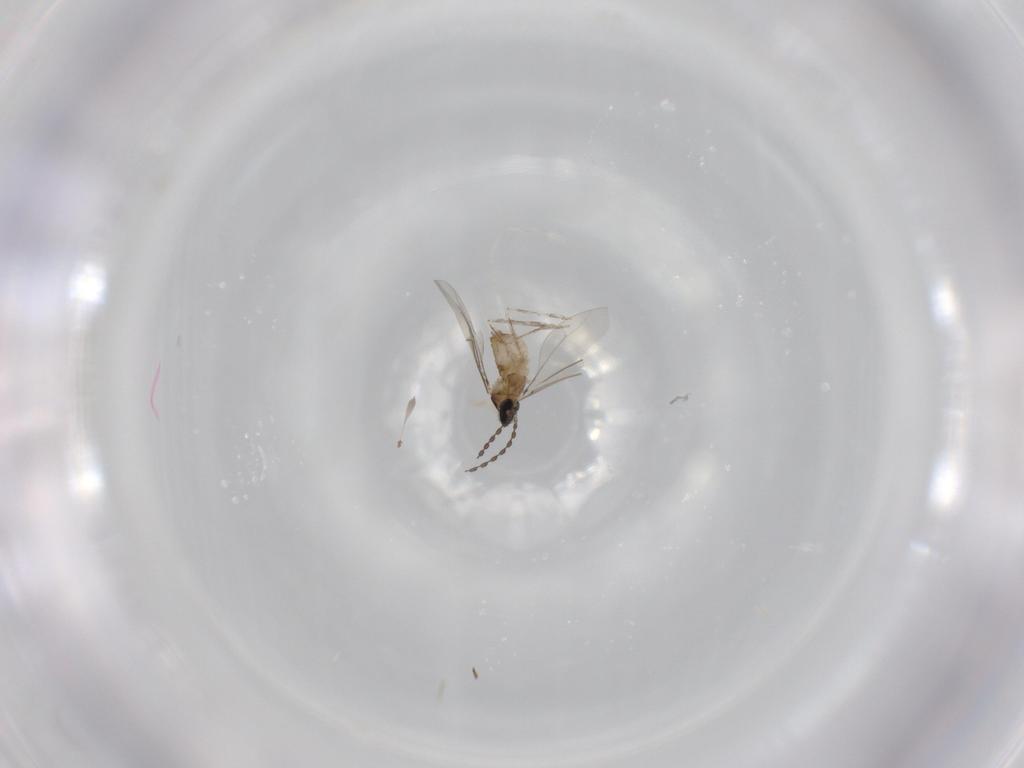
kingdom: Animalia
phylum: Arthropoda
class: Insecta
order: Diptera
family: Cecidomyiidae
